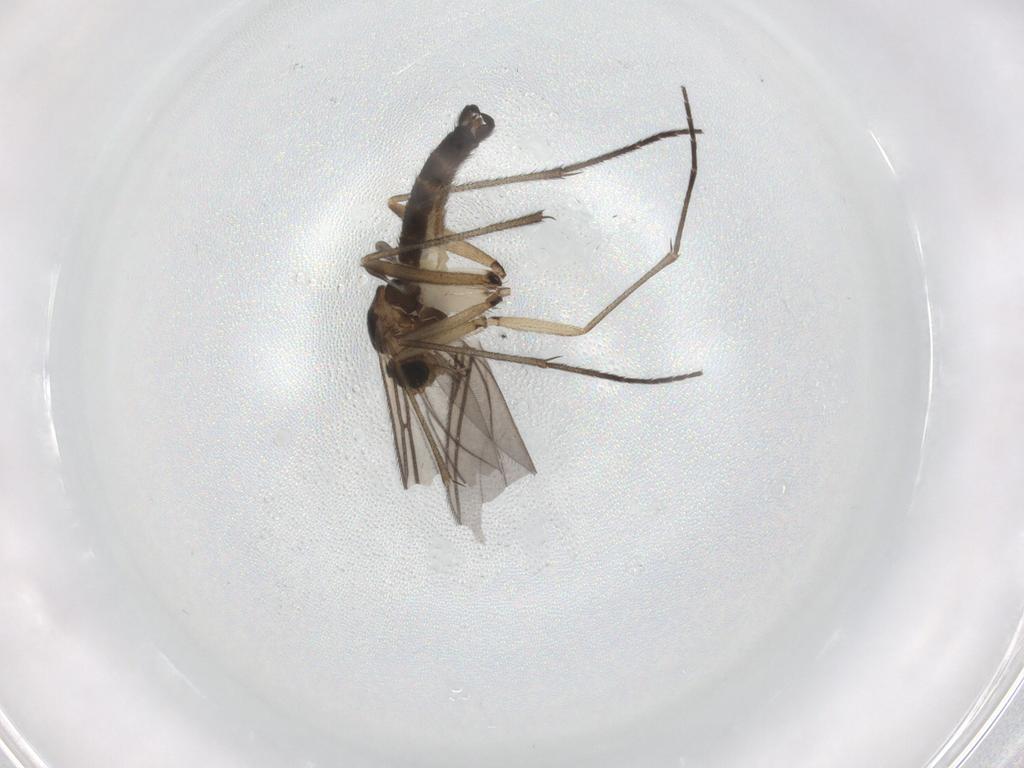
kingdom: Animalia
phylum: Arthropoda
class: Insecta
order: Diptera
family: Sciaridae
